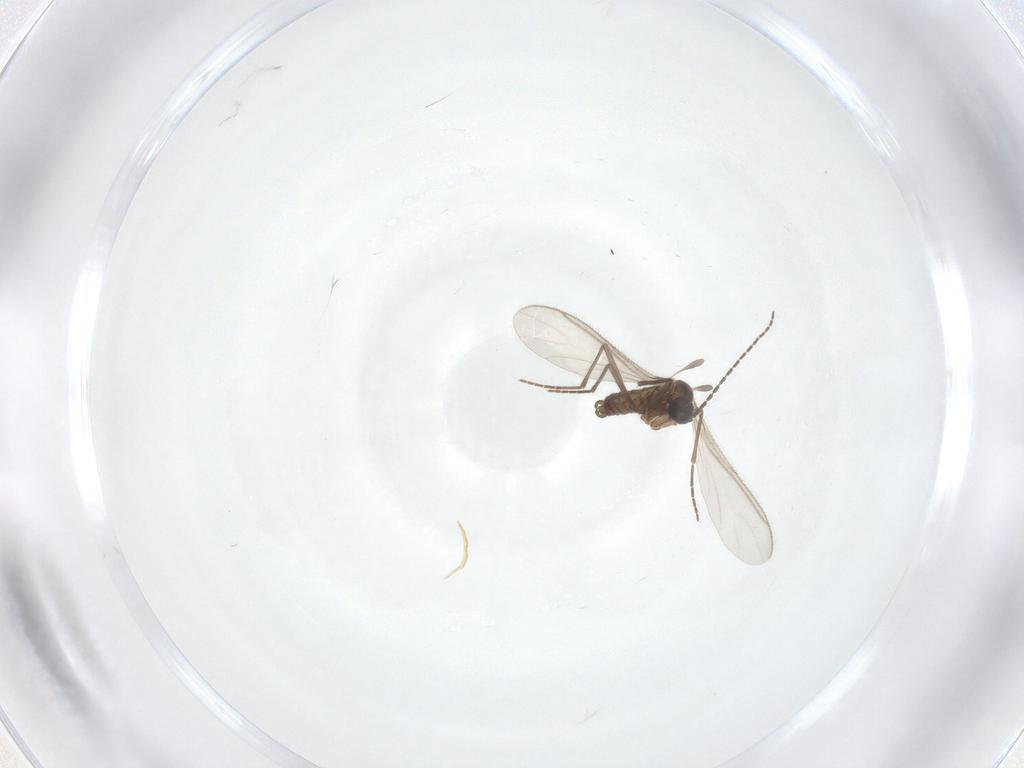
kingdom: Animalia
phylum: Arthropoda
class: Insecta
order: Diptera
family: Sciaridae
